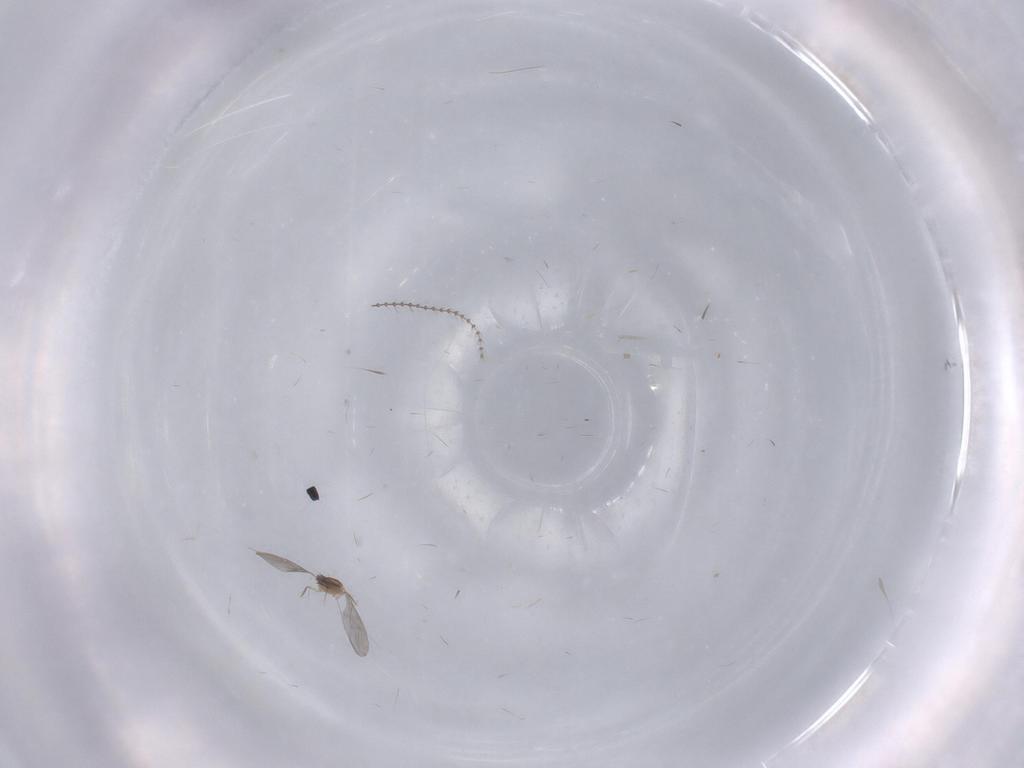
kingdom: Animalia
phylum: Arthropoda
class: Insecta
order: Diptera
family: Cecidomyiidae
